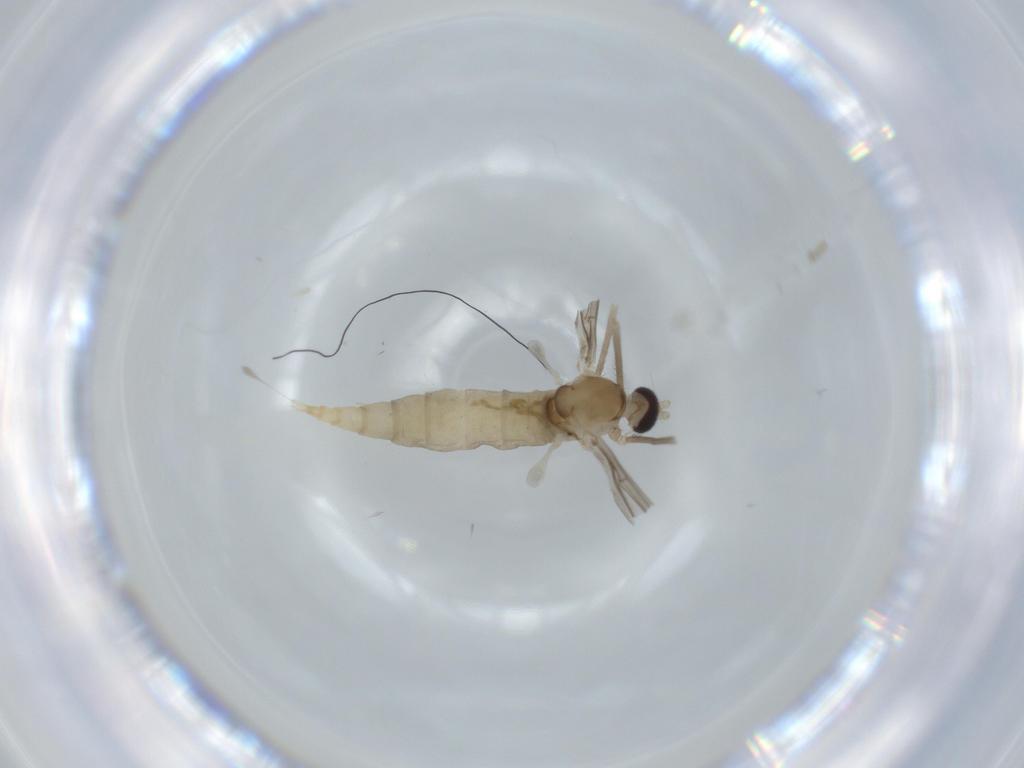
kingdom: Animalia
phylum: Arthropoda
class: Insecta
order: Diptera
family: Cecidomyiidae
